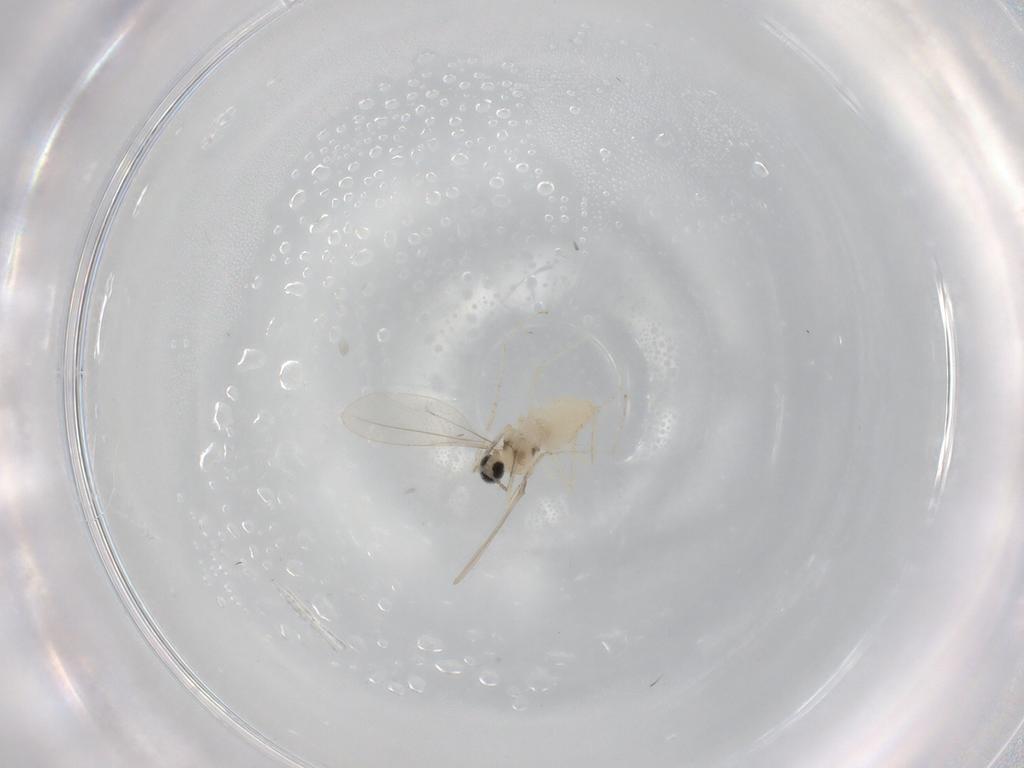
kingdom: Animalia
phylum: Arthropoda
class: Insecta
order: Diptera
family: Cecidomyiidae
